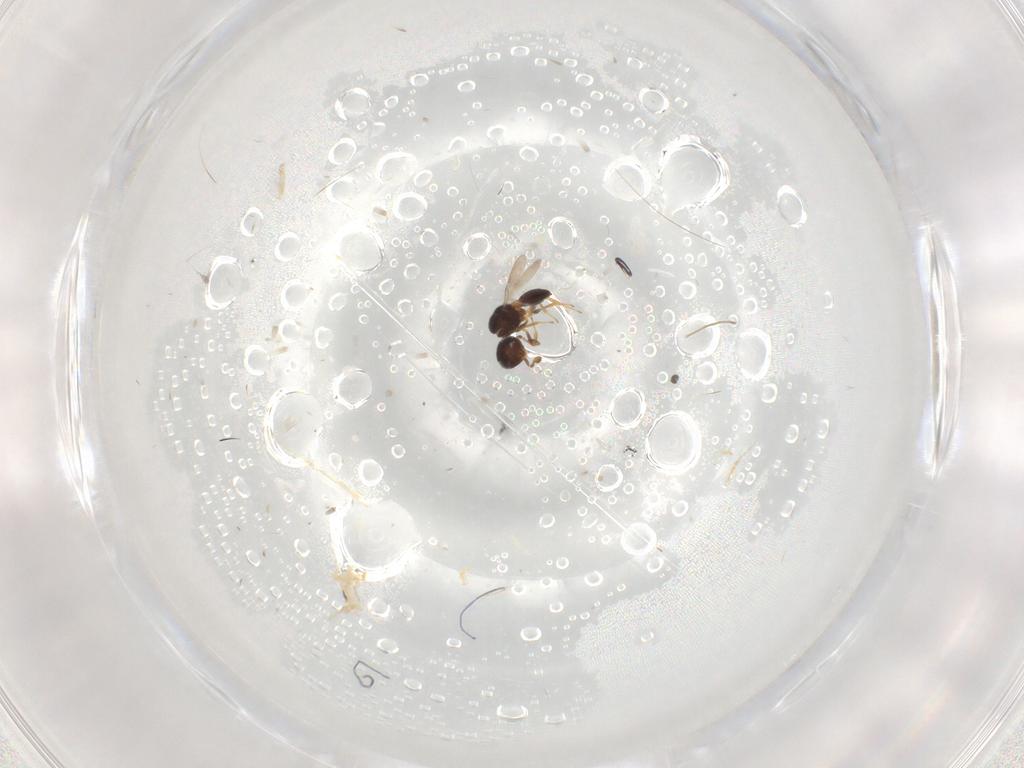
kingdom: Animalia
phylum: Arthropoda
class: Insecta
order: Hymenoptera
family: Scelionidae
